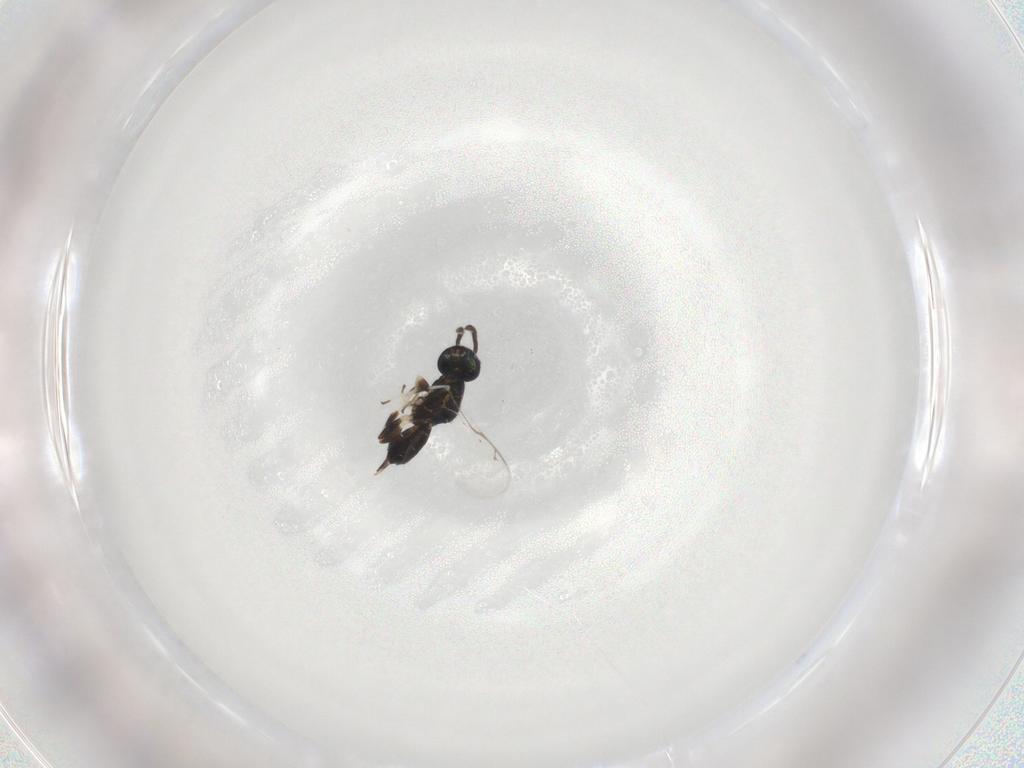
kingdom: Animalia
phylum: Arthropoda
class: Insecta
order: Hymenoptera
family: Eupelmidae
